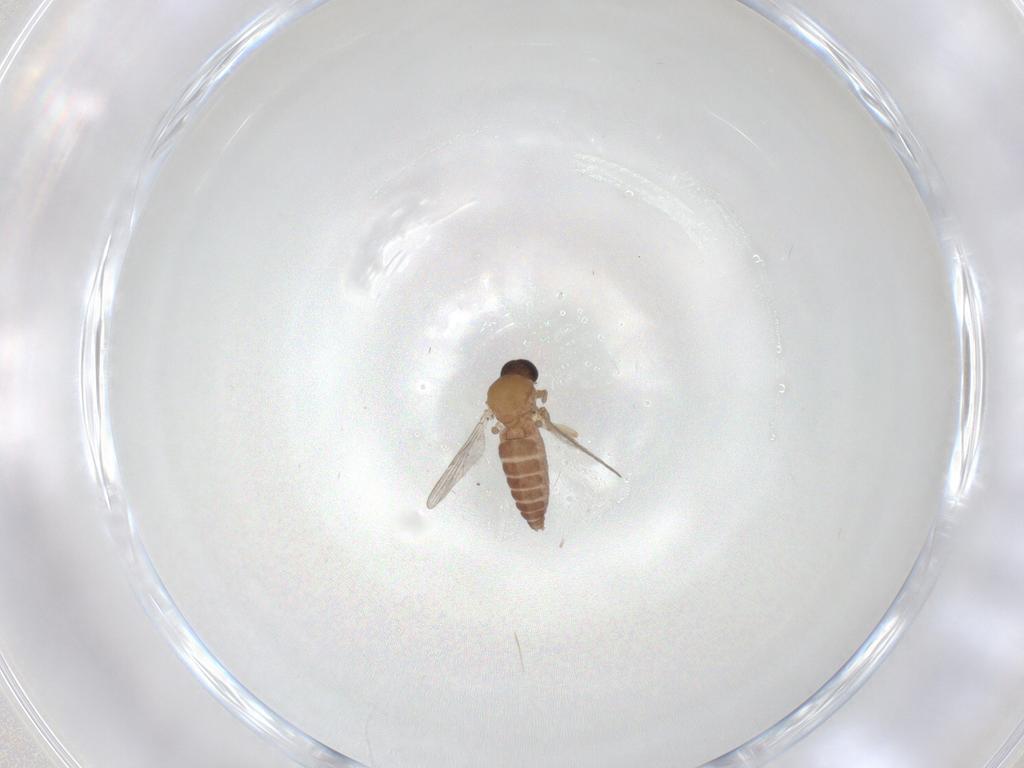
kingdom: Animalia
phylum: Arthropoda
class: Insecta
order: Diptera
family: Ceratopogonidae
